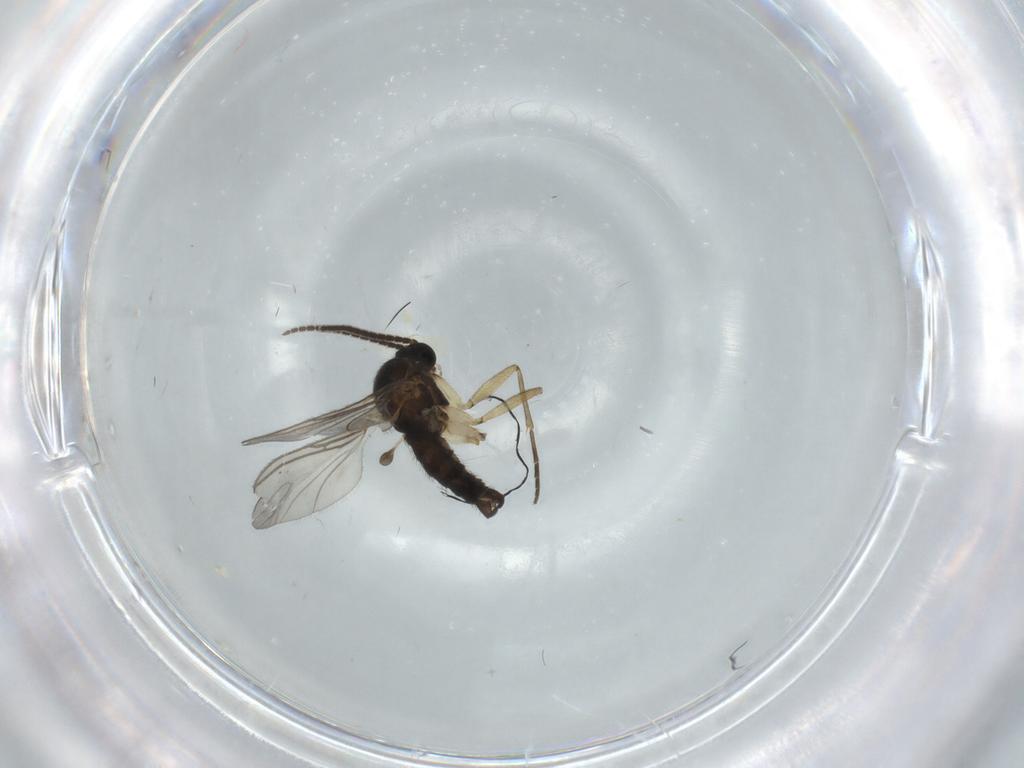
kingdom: Animalia
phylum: Arthropoda
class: Insecta
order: Diptera
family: Sciaridae
